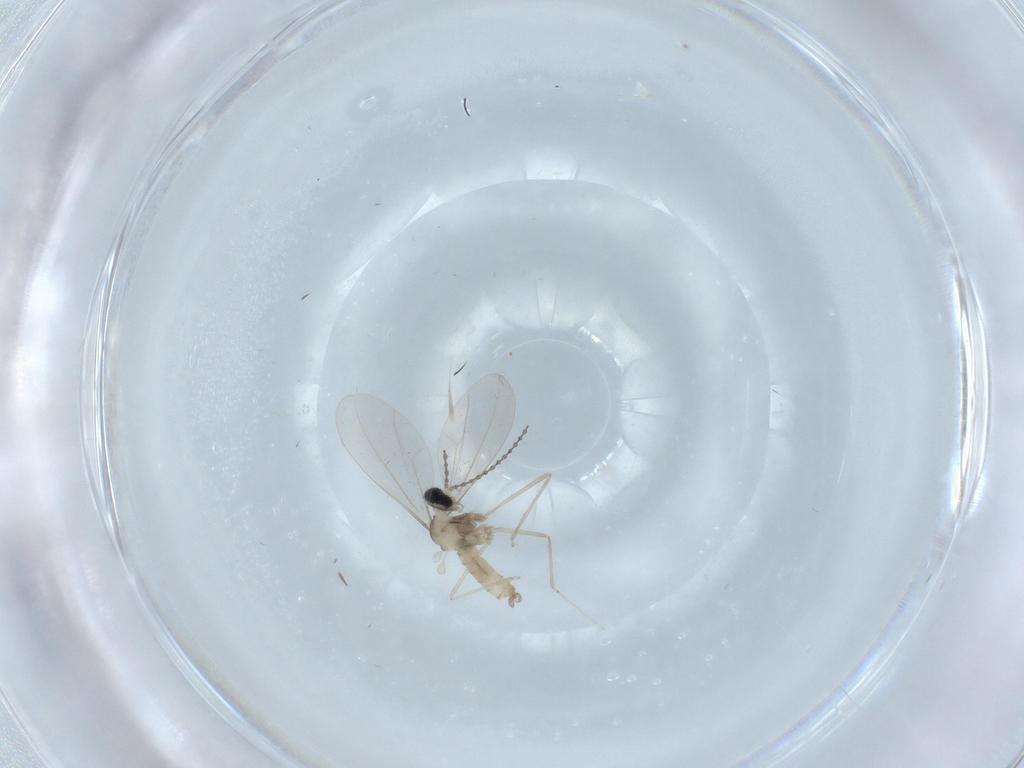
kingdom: Animalia
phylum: Arthropoda
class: Insecta
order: Diptera
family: Cecidomyiidae
